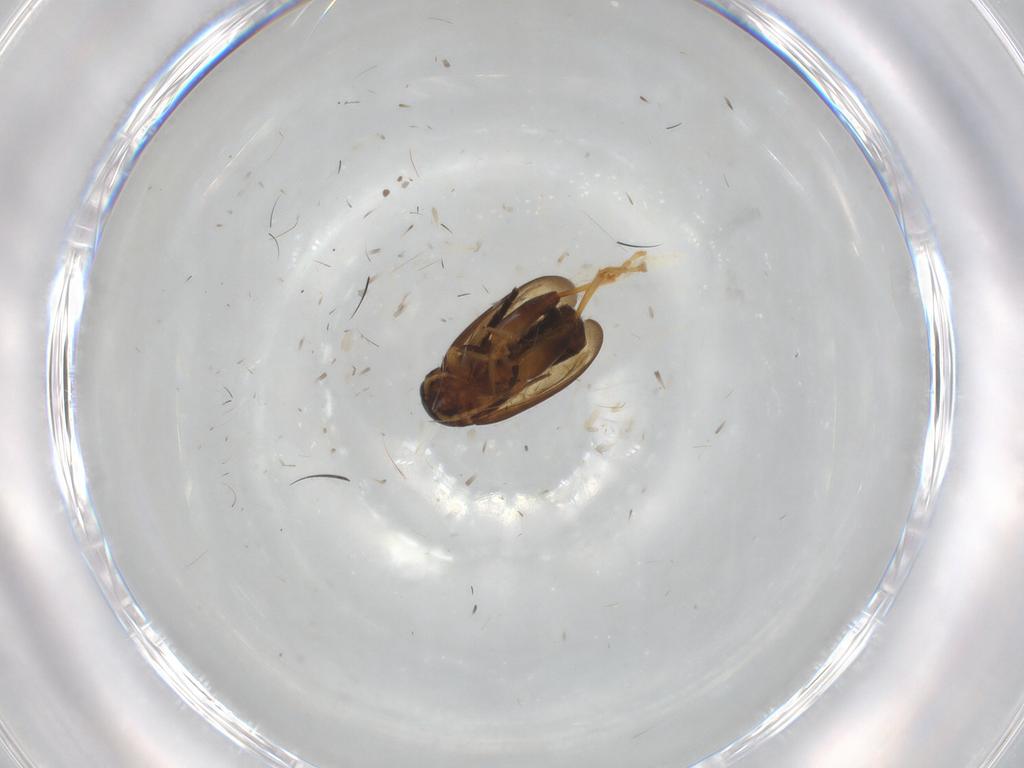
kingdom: Animalia
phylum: Arthropoda
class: Insecta
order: Coleoptera
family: Chrysomelidae
